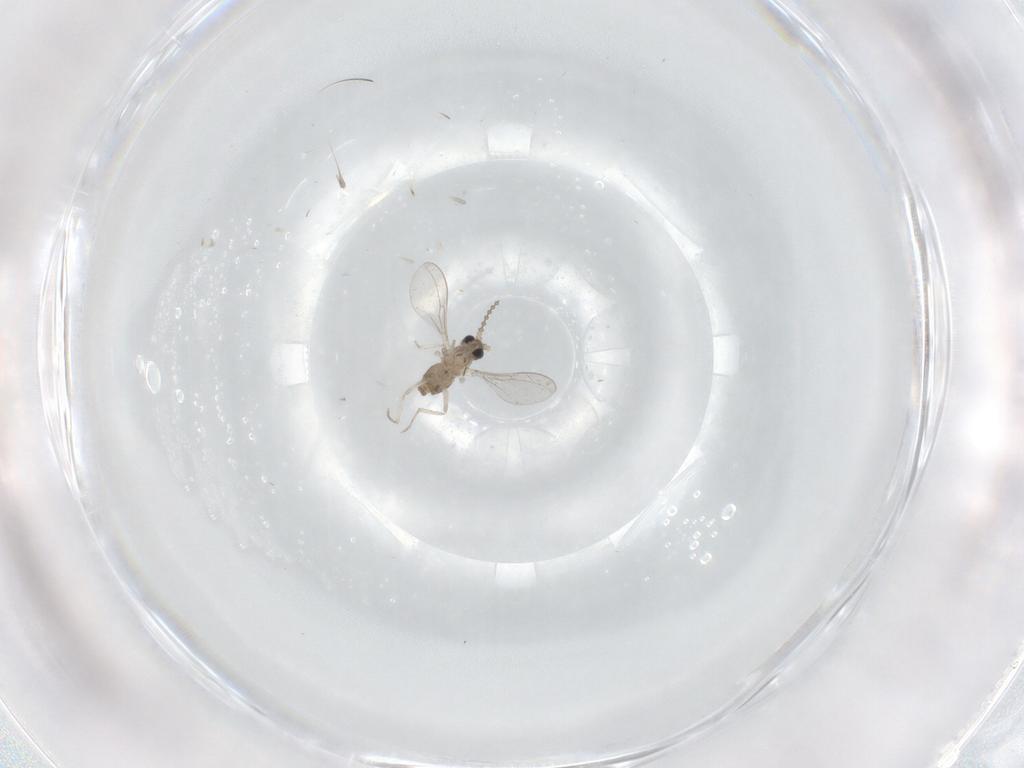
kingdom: Animalia
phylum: Arthropoda
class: Insecta
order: Diptera
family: Cecidomyiidae
